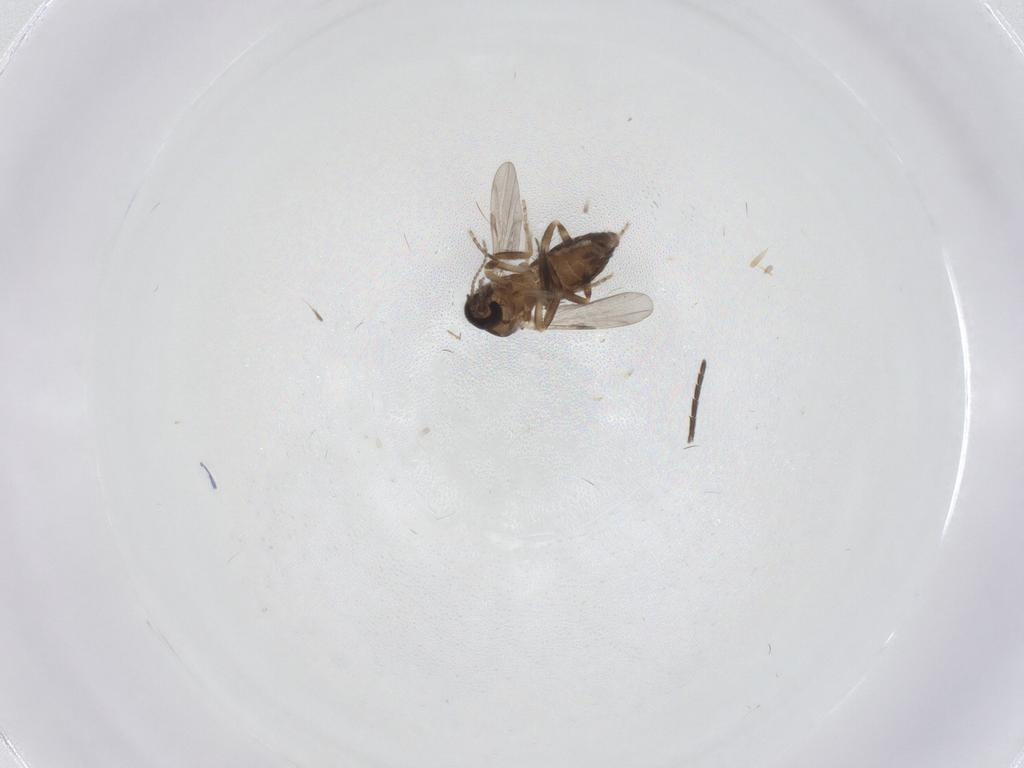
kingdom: Animalia
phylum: Arthropoda
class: Insecta
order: Diptera
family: Ceratopogonidae
